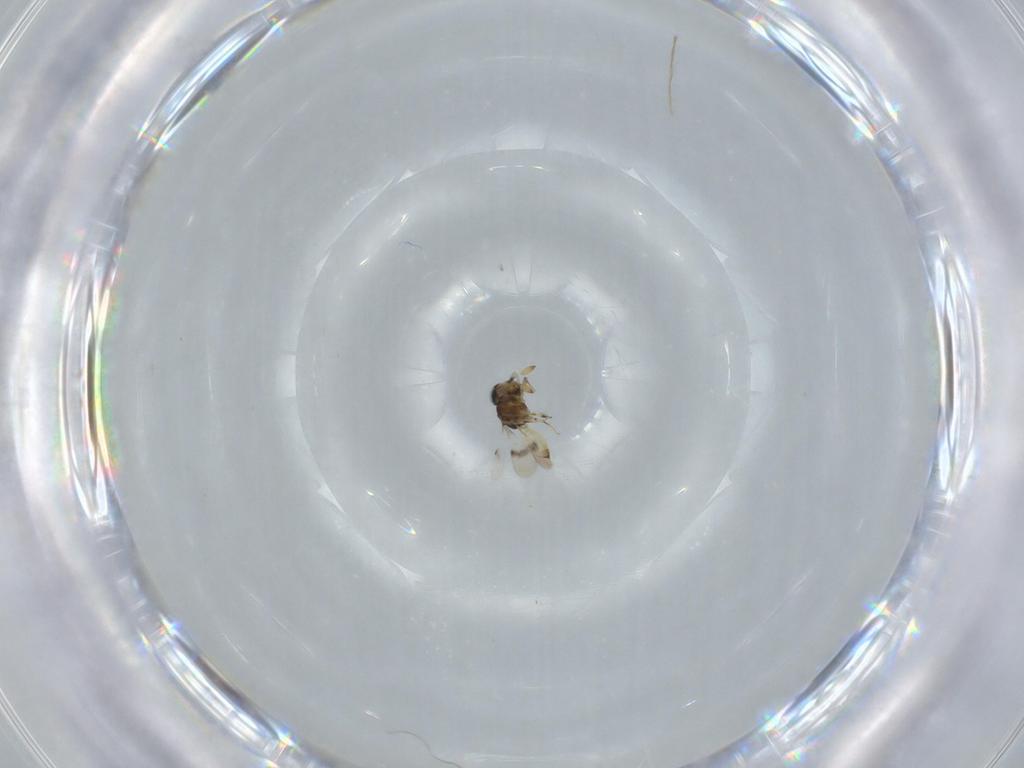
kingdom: Animalia
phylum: Arthropoda
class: Insecta
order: Hymenoptera
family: Scelionidae
